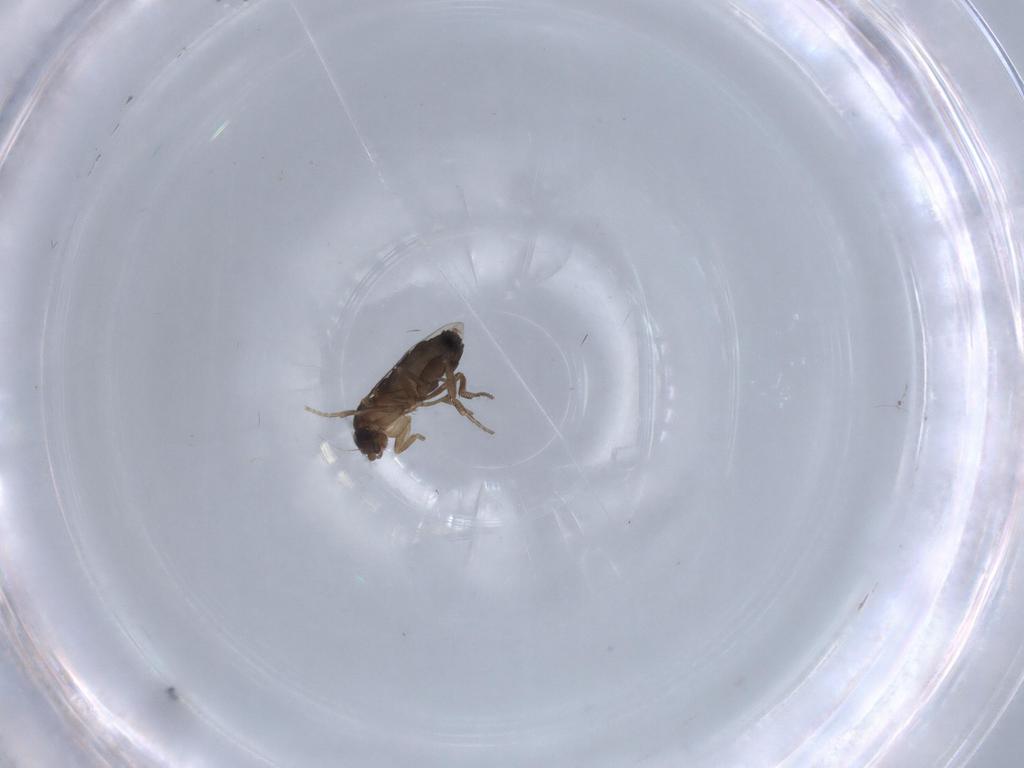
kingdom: Animalia
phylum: Arthropoda
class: Insecta
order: Diptera
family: Phoridae
